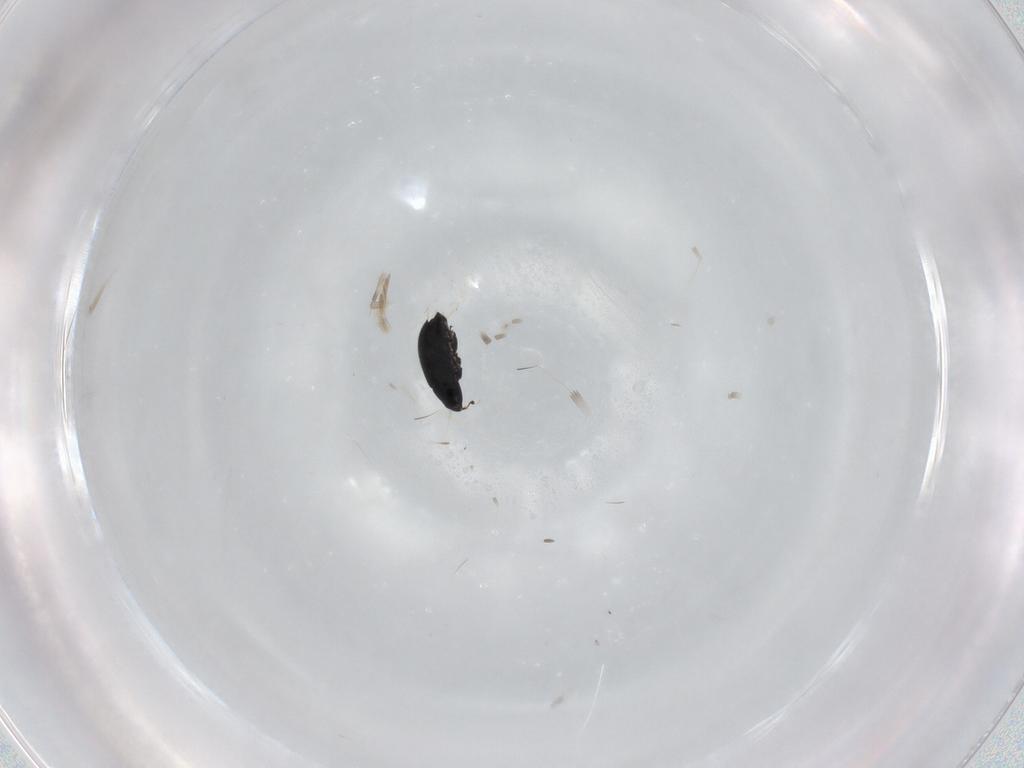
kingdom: Animalia
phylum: Arthropoda
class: Insecta
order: Coleoptera
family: Curculionidae
